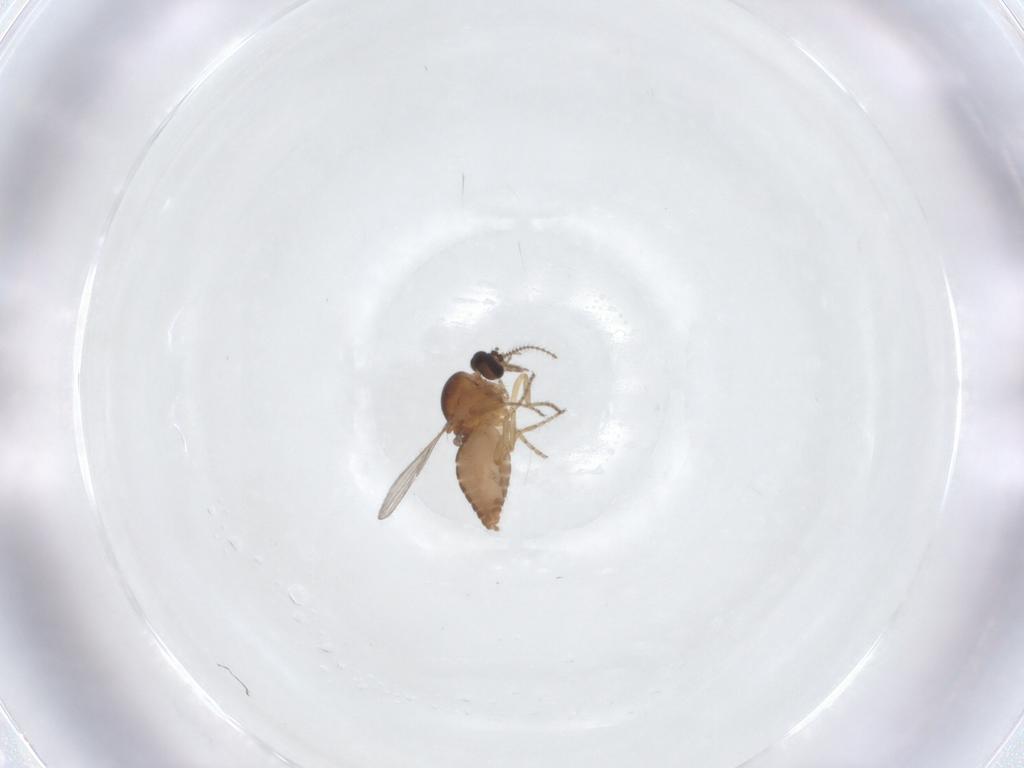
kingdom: Animalia
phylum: Arthropoda
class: Insecta
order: Diptera
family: Ceratopogonidae
